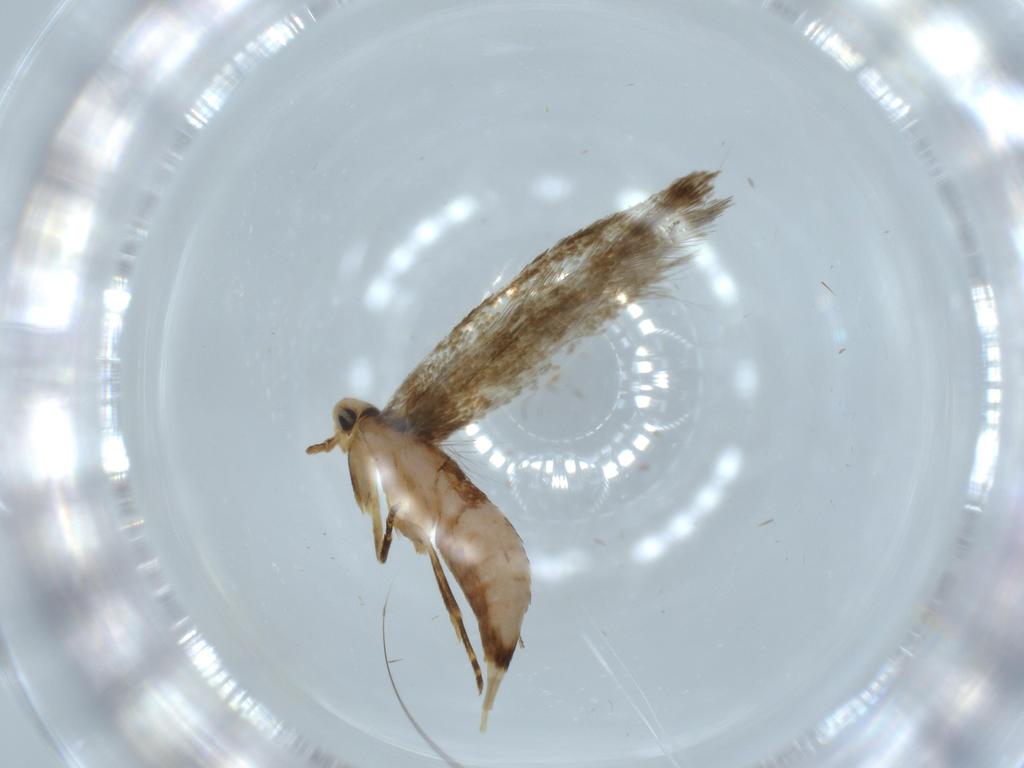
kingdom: Animalia
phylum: Arthropoda
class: Insecta
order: Lepidoptera
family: Tineidae
